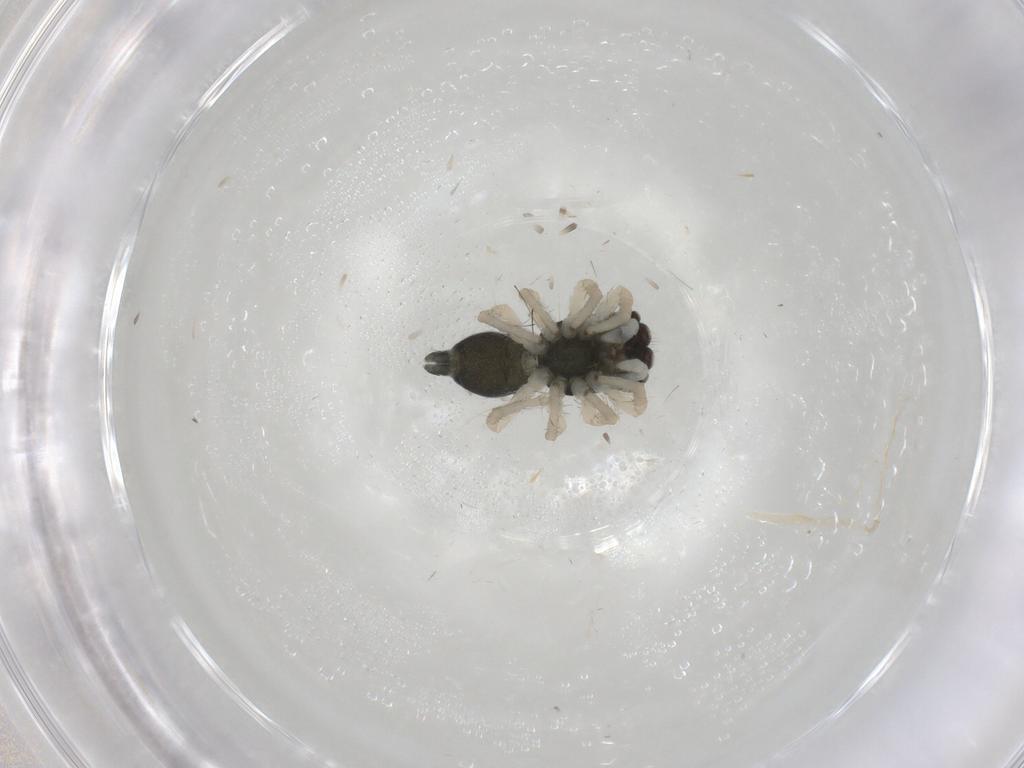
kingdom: Animalia
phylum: Arthropoda
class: Arachnida
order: Araneae
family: Salticidae
